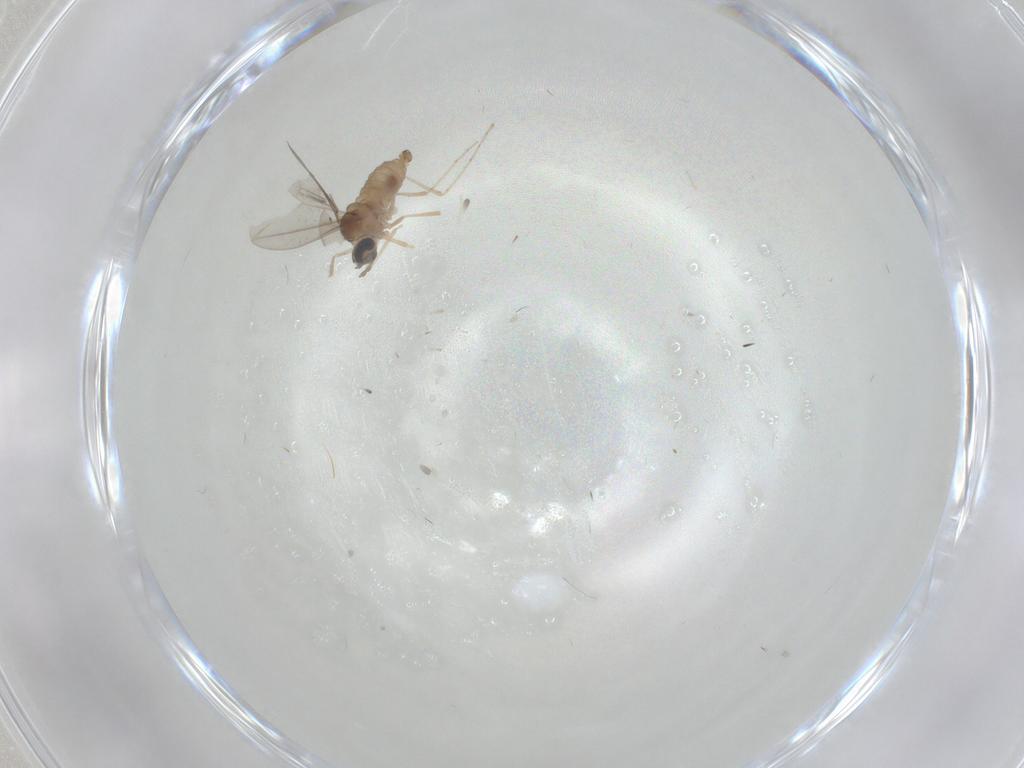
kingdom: Animalia
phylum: Arthropoda
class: Insecta
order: Diptera
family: Cecidomyiidae
